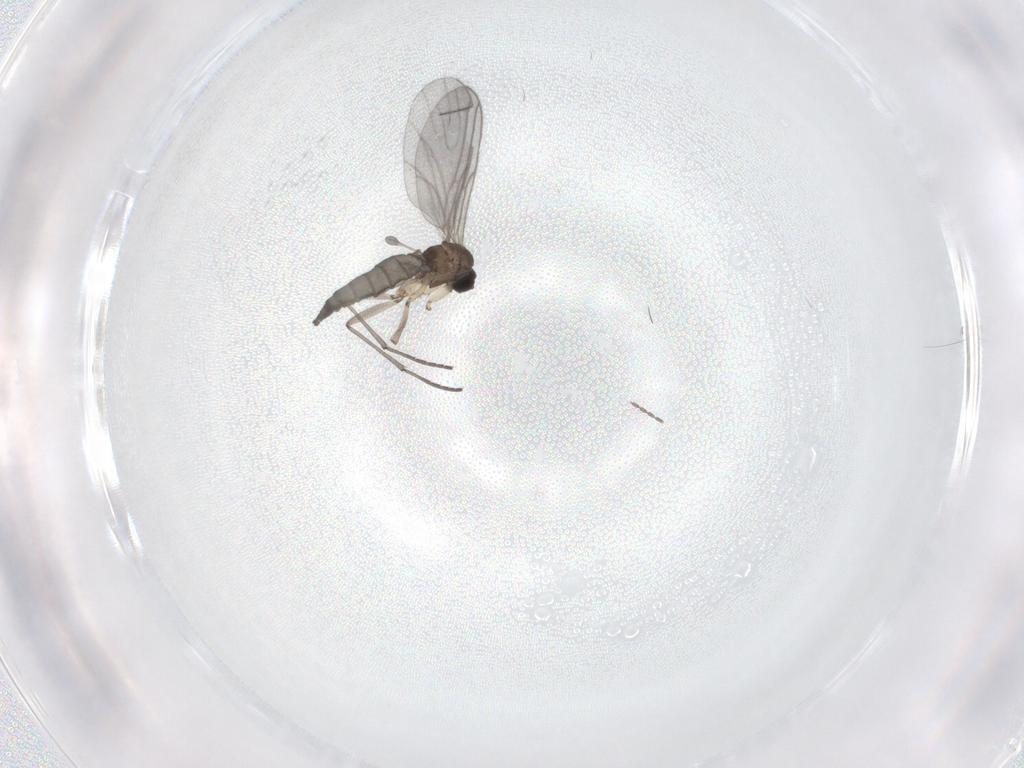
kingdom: Animalia
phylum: Arthropoda
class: Insecta
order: Diptera
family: Sciaridae
